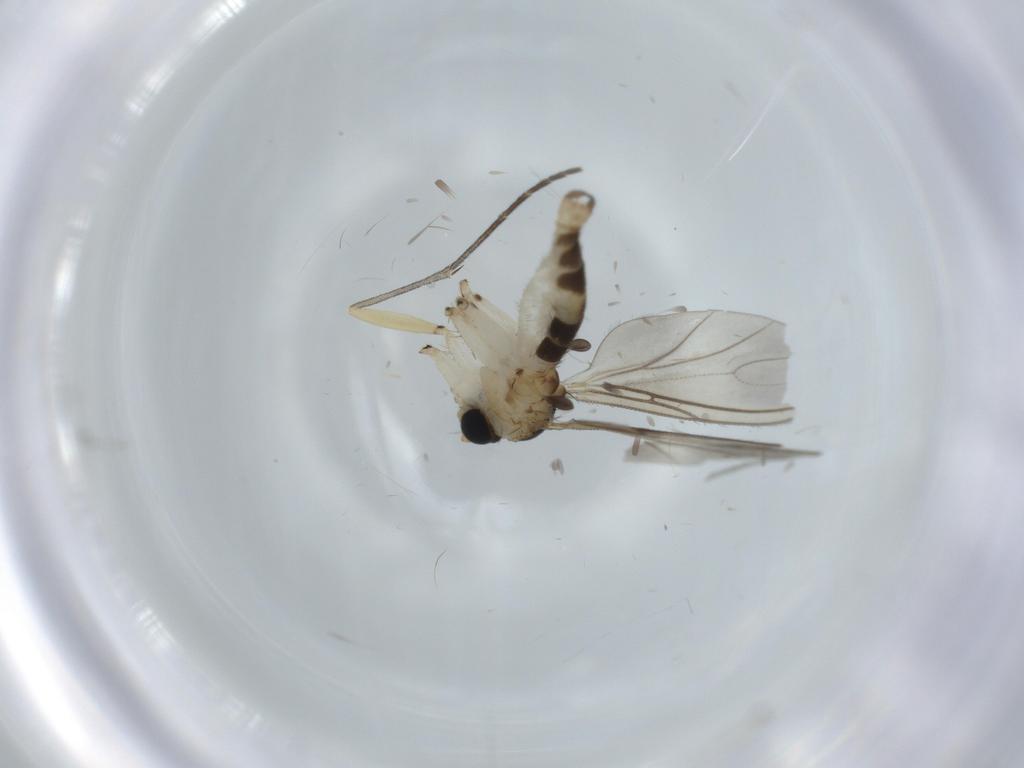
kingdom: Animalia
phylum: Arthropoda
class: Insecta
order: Diptera
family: Sciaridae
